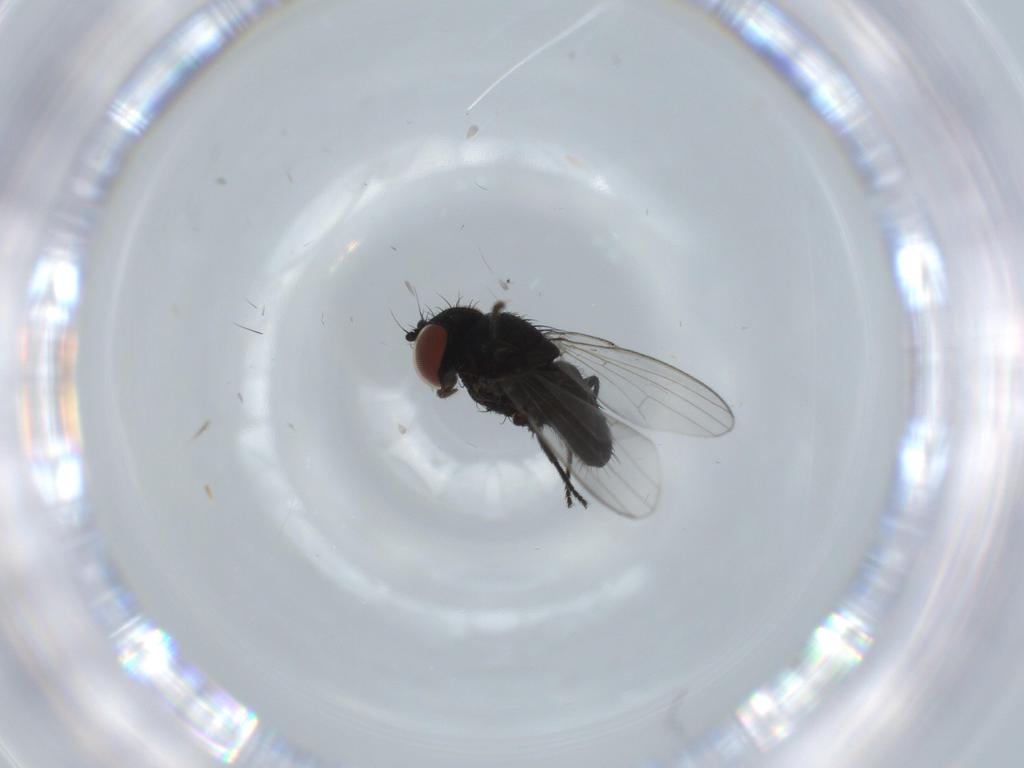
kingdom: Animalia
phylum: Arthropoda
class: Insecta
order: Diptera
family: Milichiidae
